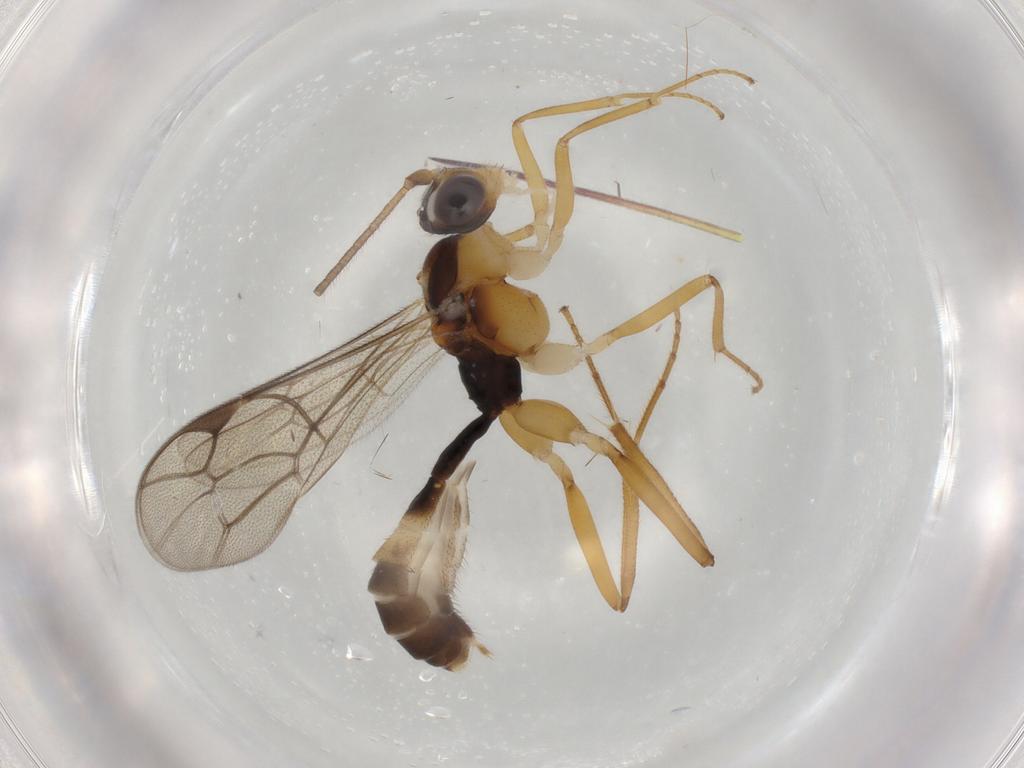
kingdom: Animalia
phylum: Arthropoda
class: Insecta
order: Hymenoptera
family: Ichneumonidae
